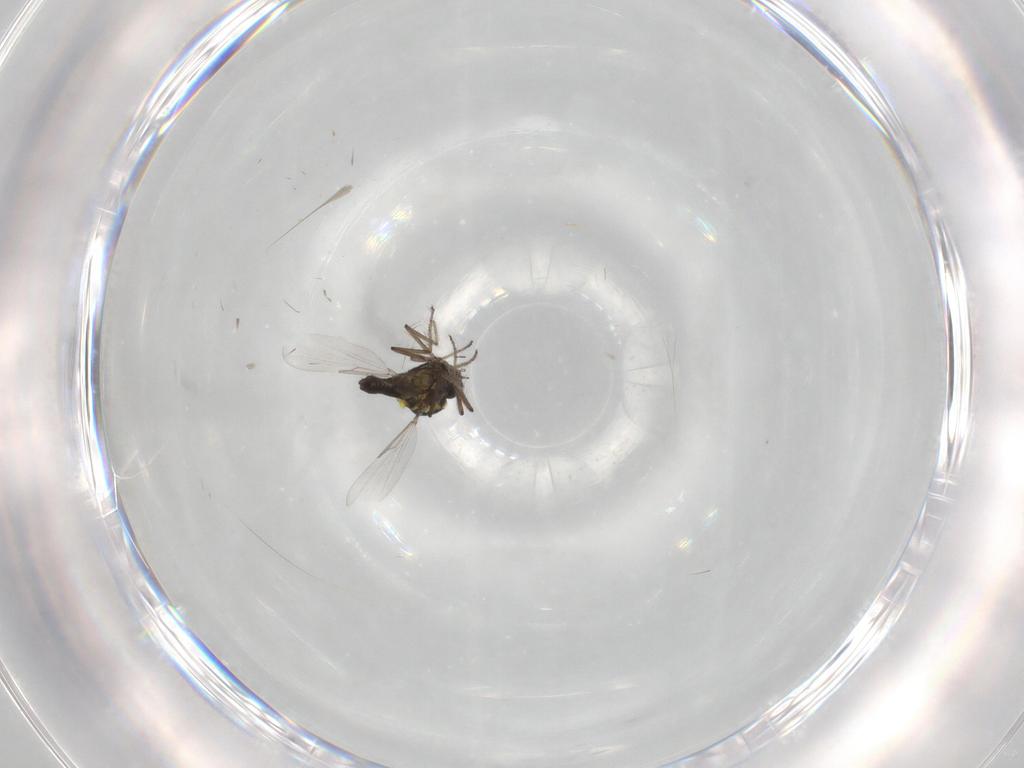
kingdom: Animalia
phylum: Arthropoda
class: Insecta
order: Diptera
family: Ceratopogonidae
